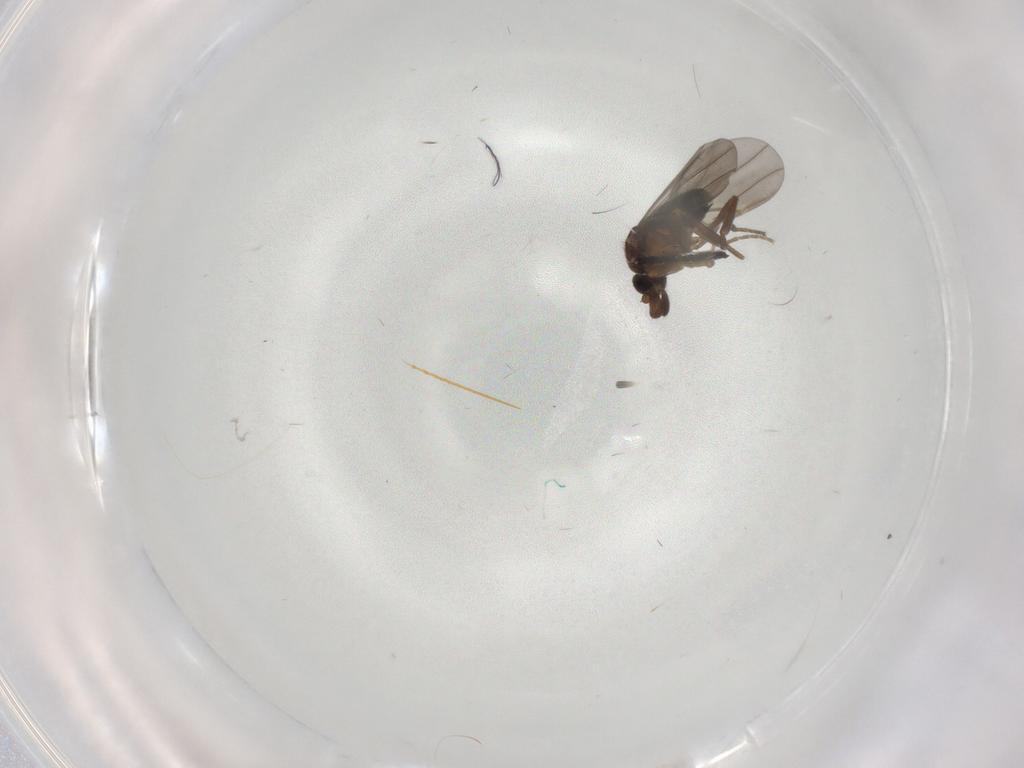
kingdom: Animalia
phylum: Arthropoda
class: Insecta
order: Diptera
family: Phoridae
